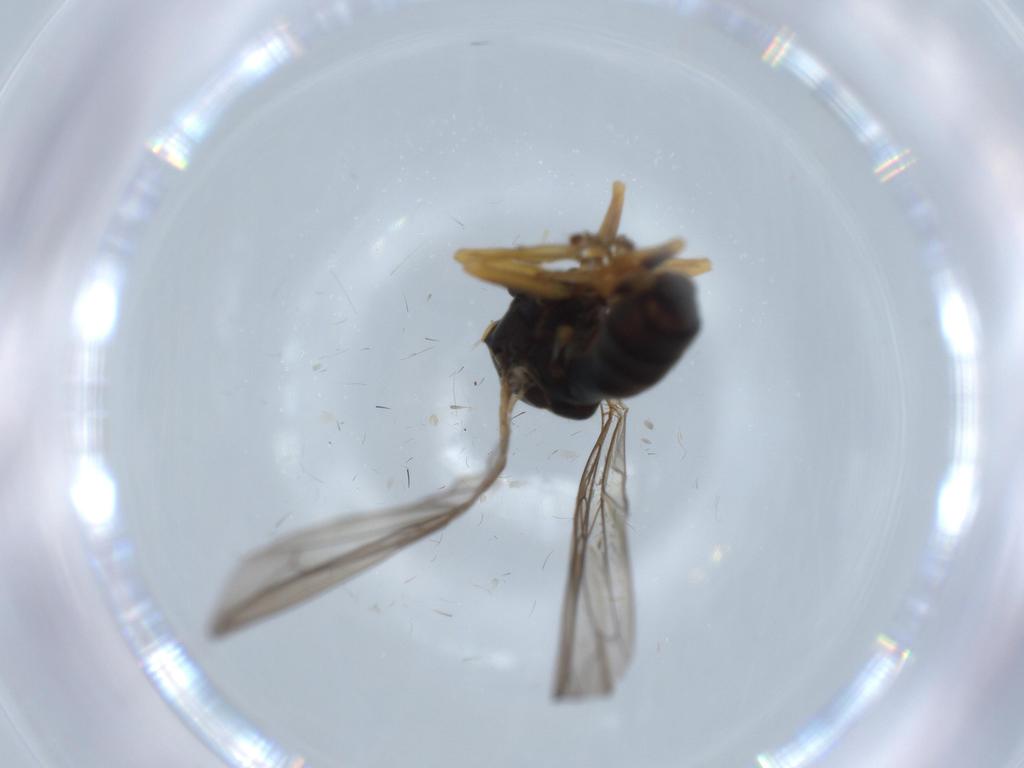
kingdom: Animalia
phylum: Arthropoda
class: Insecta
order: Diptera
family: Pipunculidae
